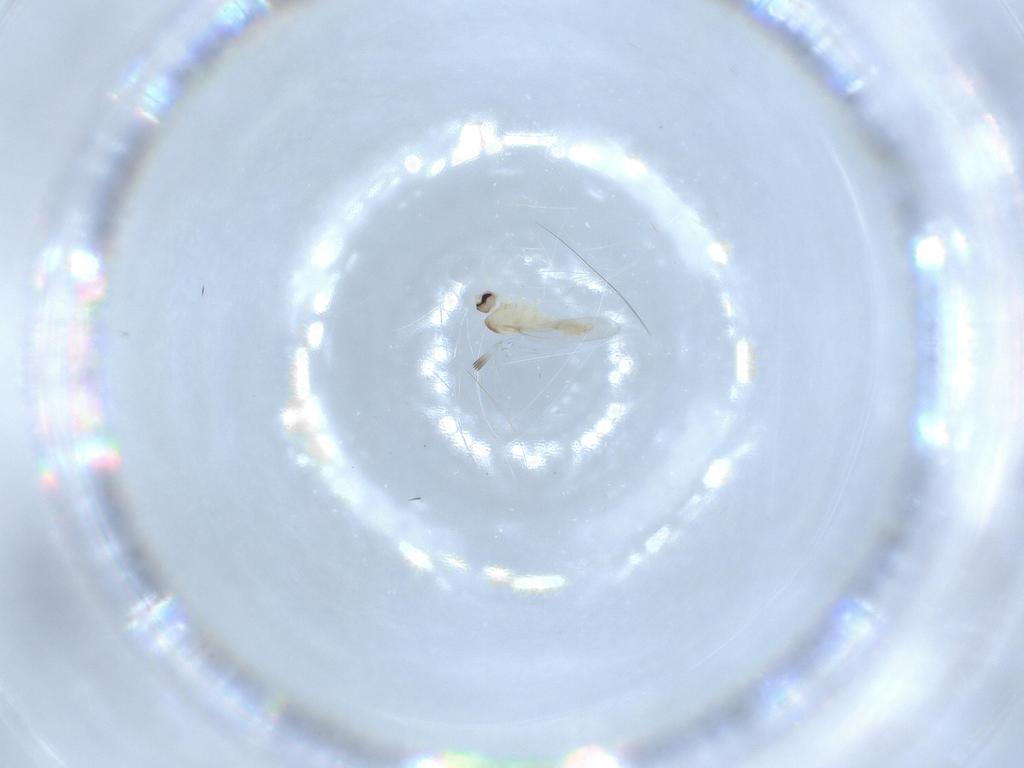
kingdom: Animalia
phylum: Arthropoda
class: Insecta
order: Diptera
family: Cecidomyiidae
